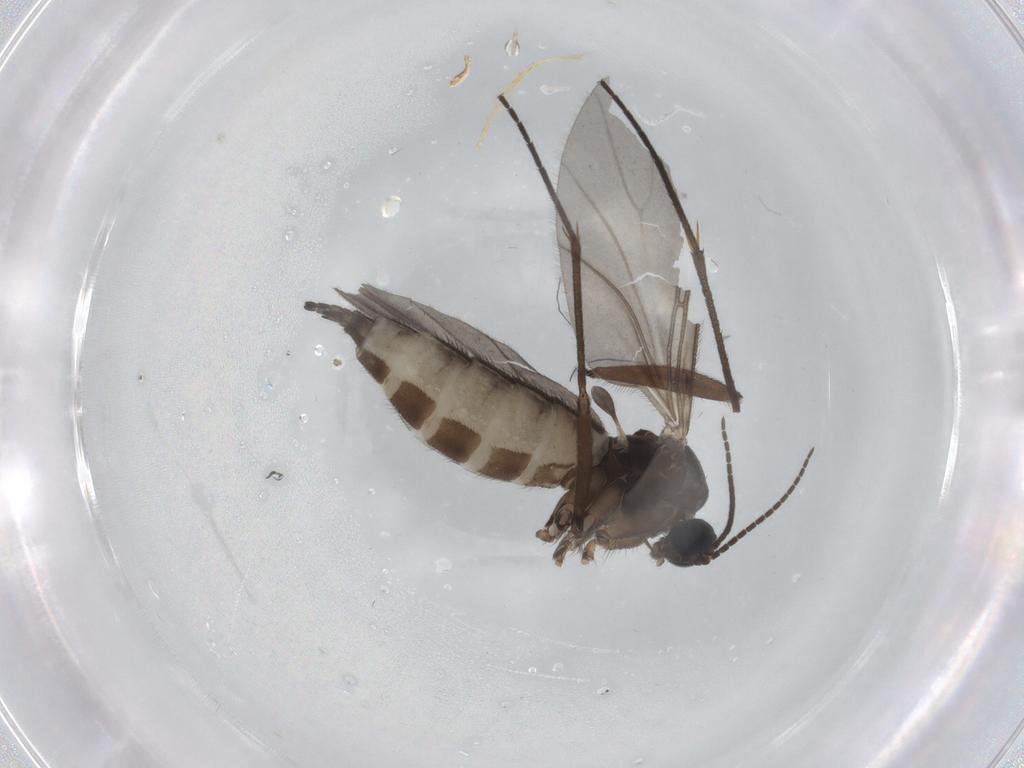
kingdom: Animalia
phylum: Arthropoda
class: Insecta
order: Diptera
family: Sciaridae
